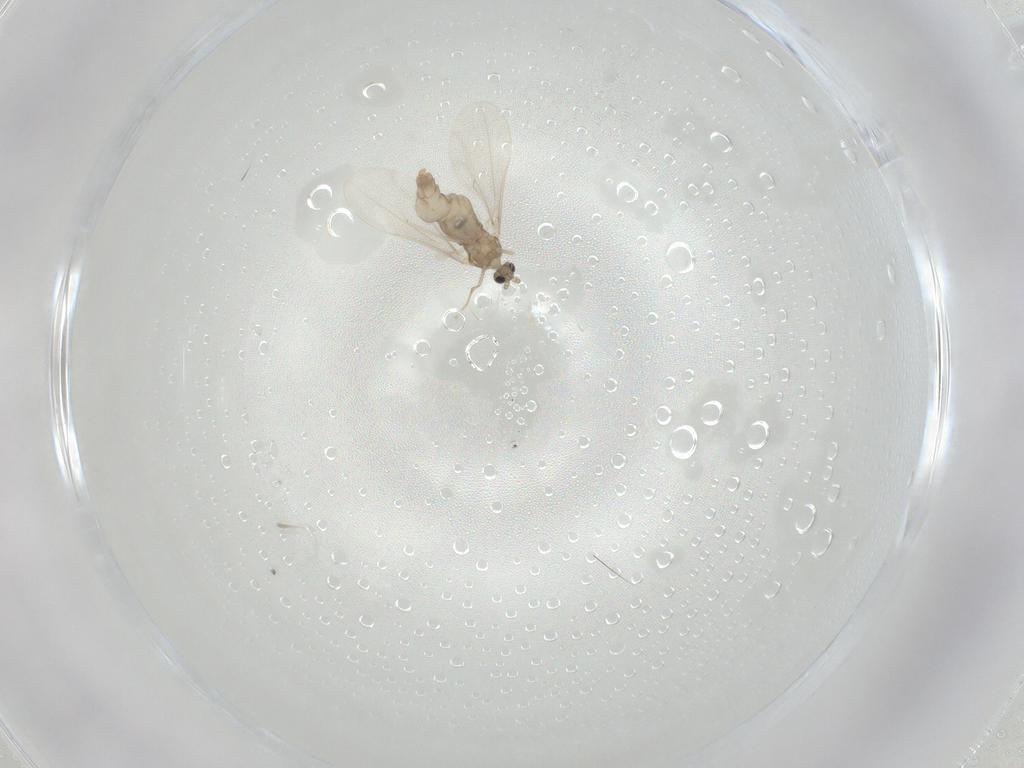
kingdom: Animalia
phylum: Arthropoda
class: Insecta
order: Diptera
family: Cecidomyiidae
